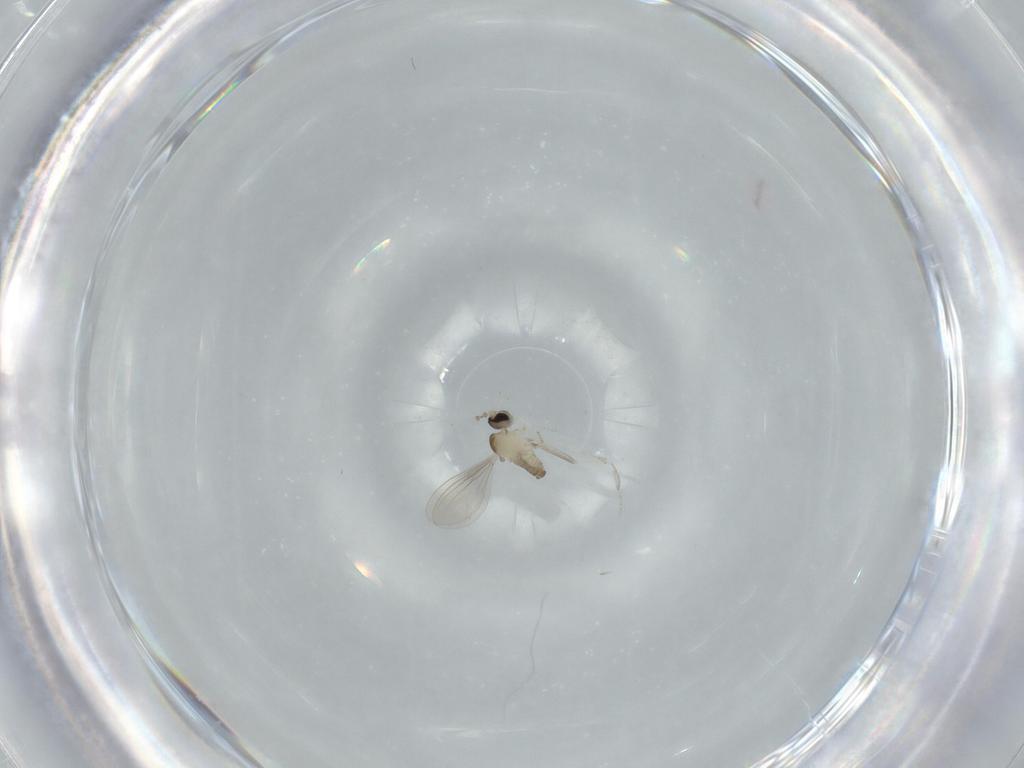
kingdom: Animalia
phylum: Arthropoda
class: Insecta
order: Diptera
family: Cecidomyiidae
